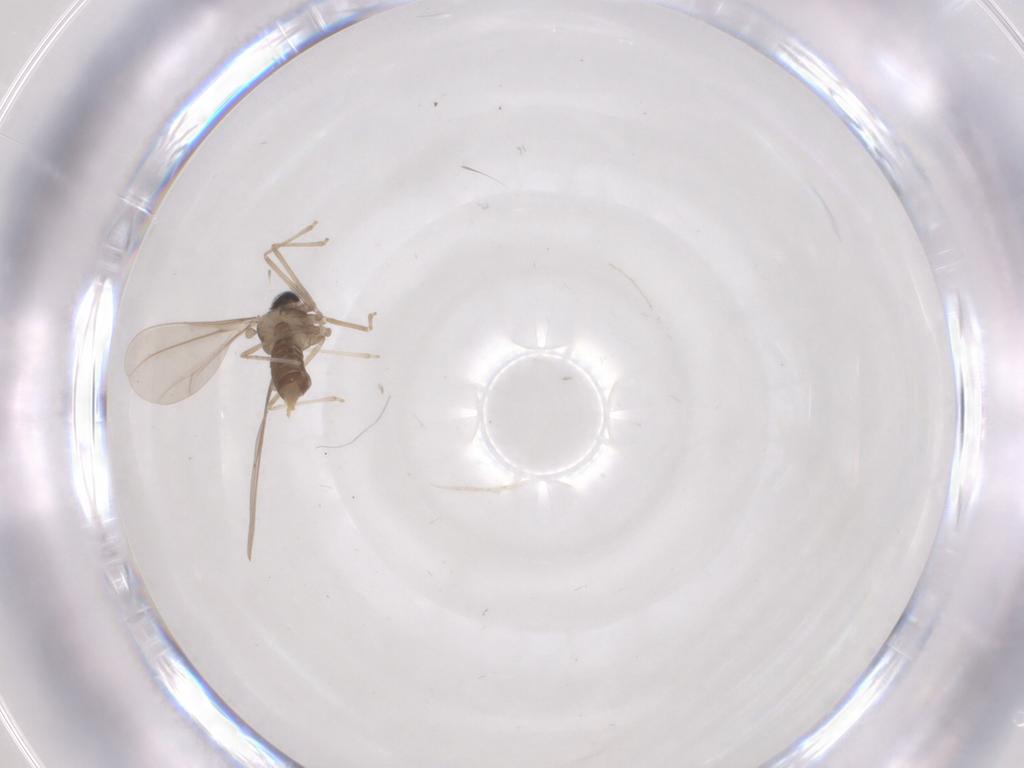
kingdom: Animalia
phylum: Arthropoda
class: Insecta
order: Diptera
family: Cecidomyiidae
